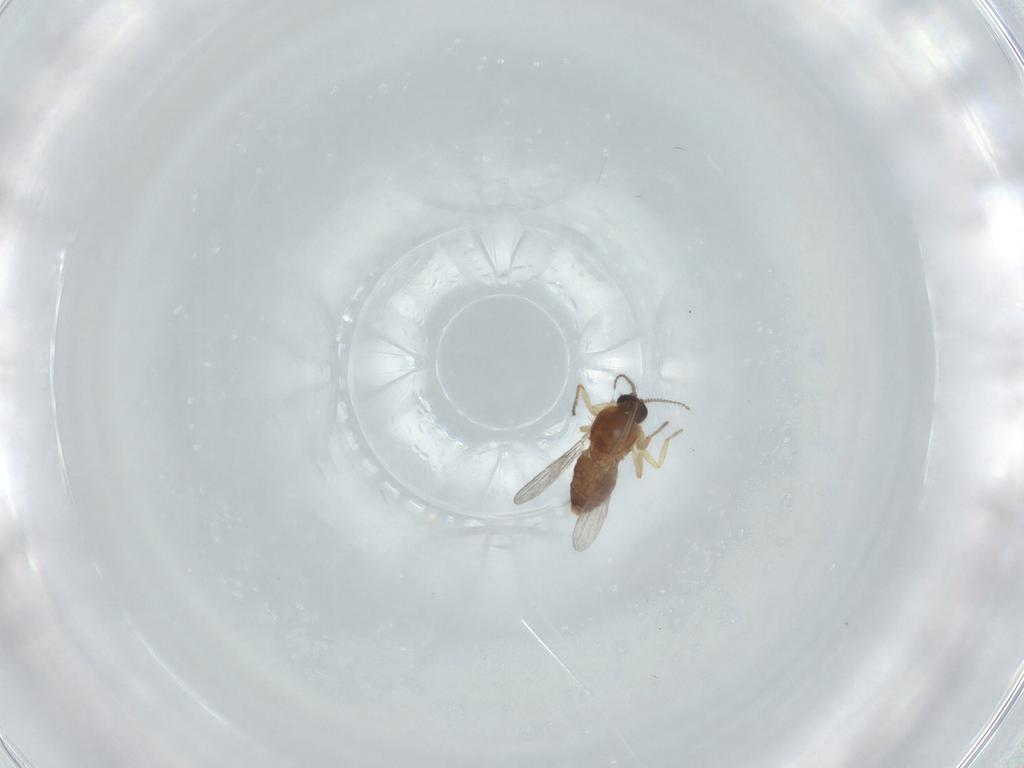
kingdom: Animalia
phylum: Arthropoda
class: Insecta
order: Diptera
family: Ceratopogonidae
